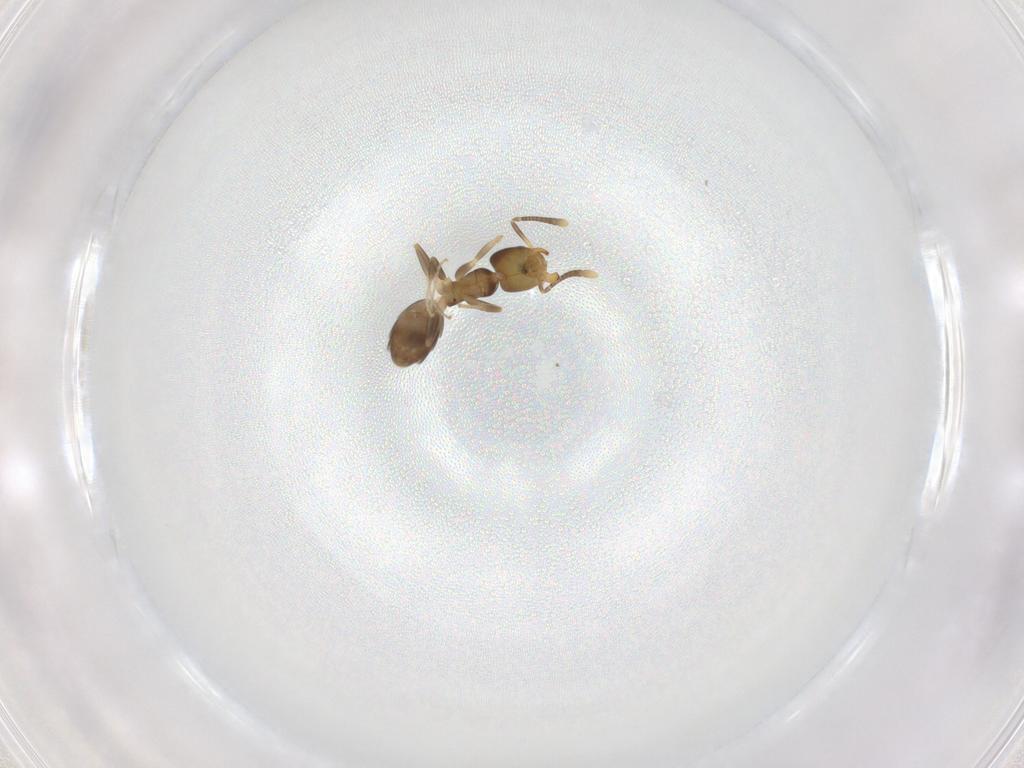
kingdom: Animalia
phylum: Arthropoda
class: Insecta
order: Hymenoptera
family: Formicidae
